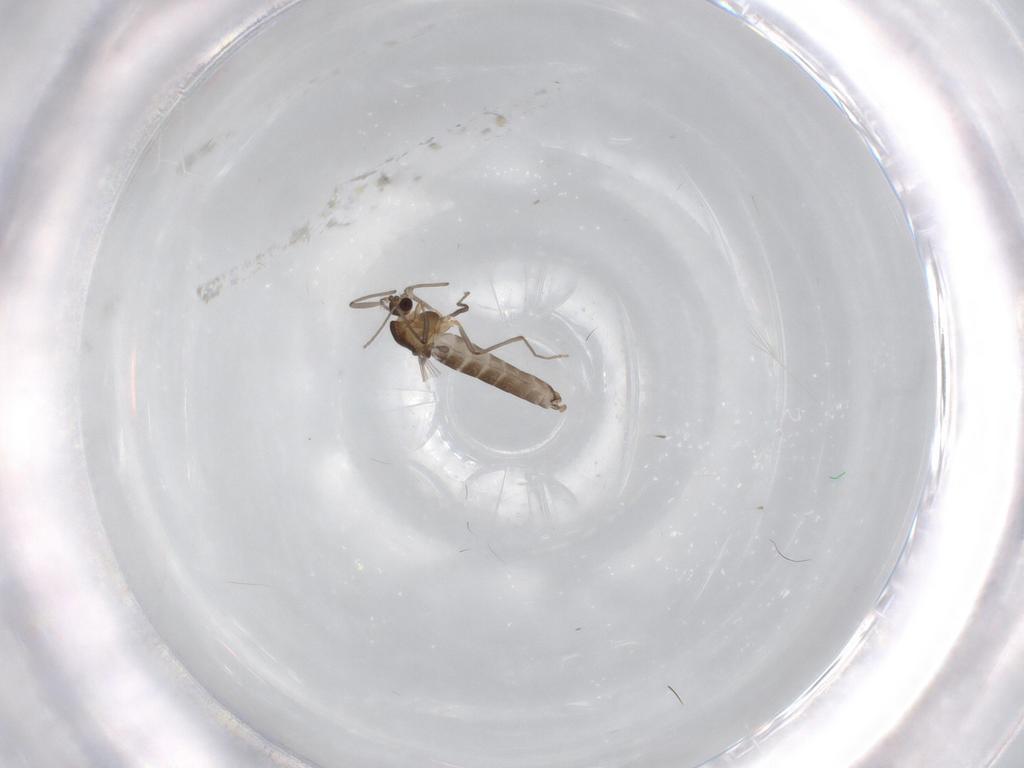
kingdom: Animalia
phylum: Arthropoda
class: Insecta
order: Diptera
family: Chironomidae
